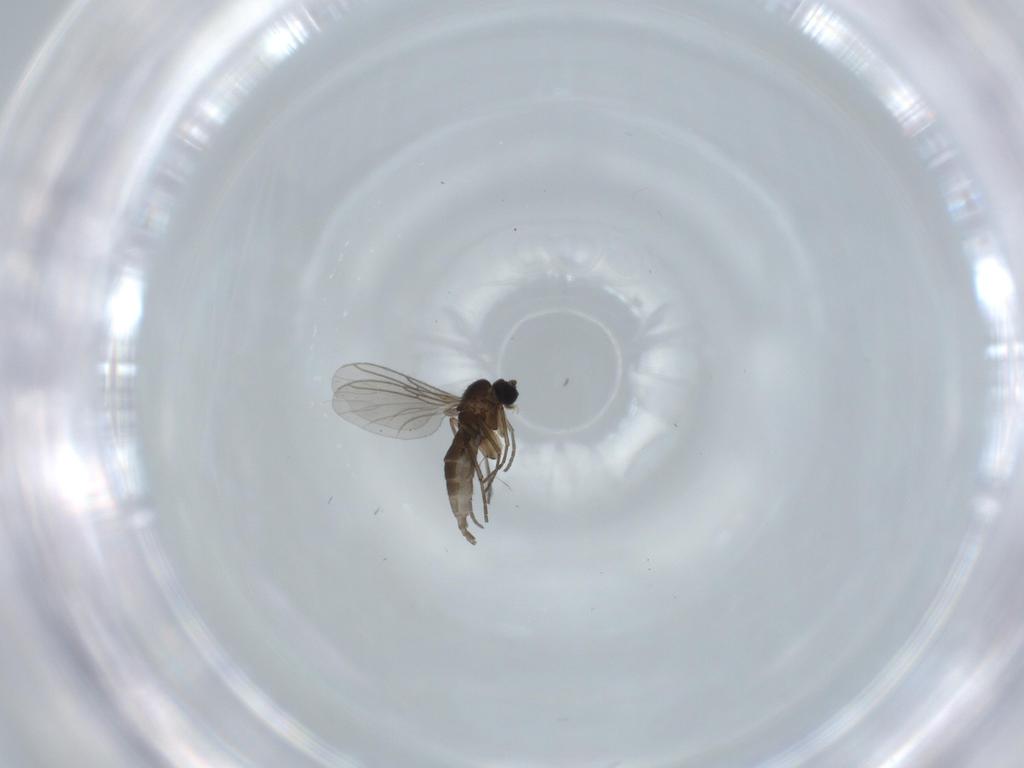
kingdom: Animalia
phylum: Arthropoda
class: Insecta
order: Diptera
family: Sciaridae
